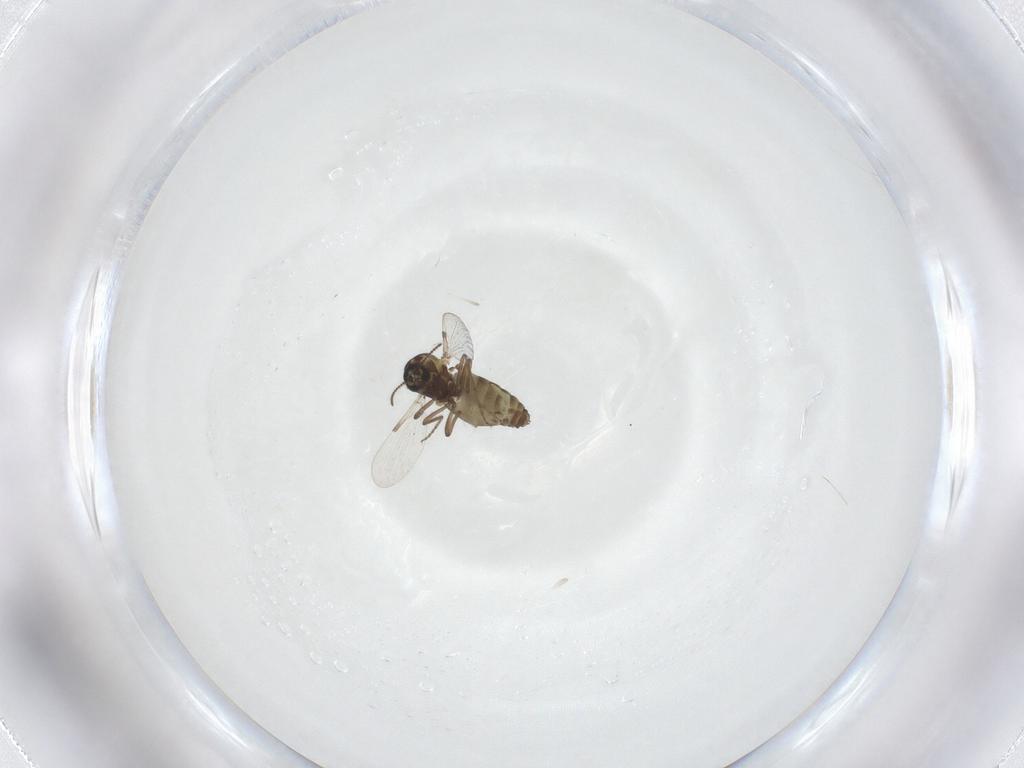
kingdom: Animalia
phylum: Arthropoda
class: Insecta
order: Diptera
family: Ceratopogonidae
